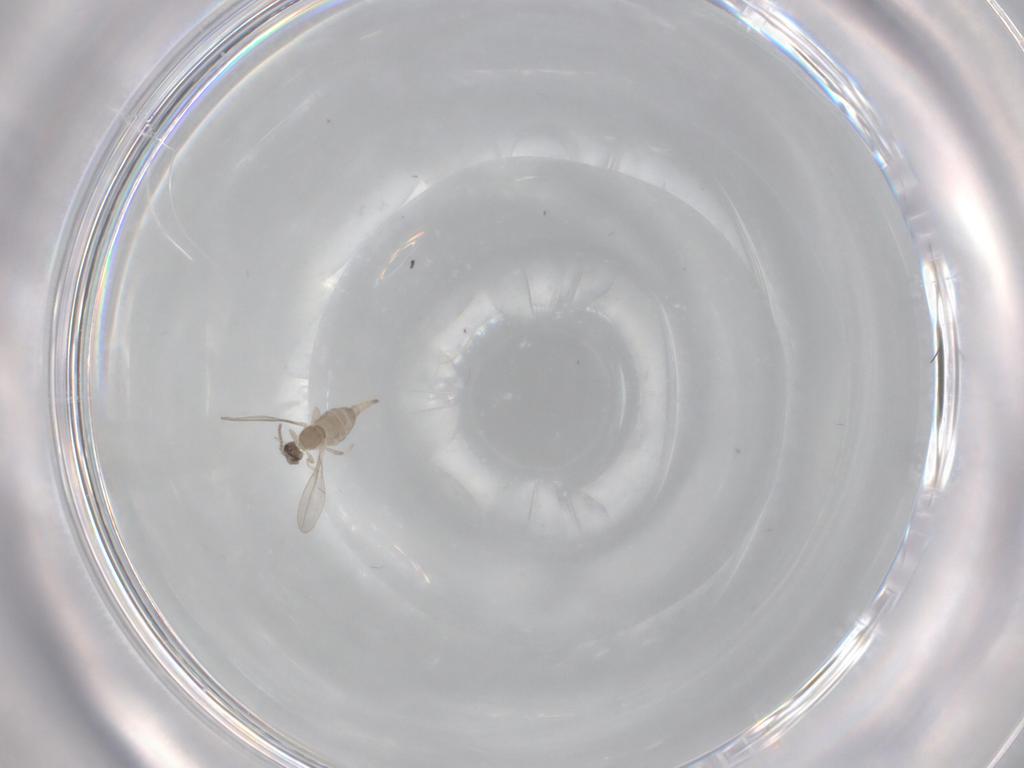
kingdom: Animalia
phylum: Arthropoda
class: Insecta
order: Diptera
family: Cecidomyiidae
